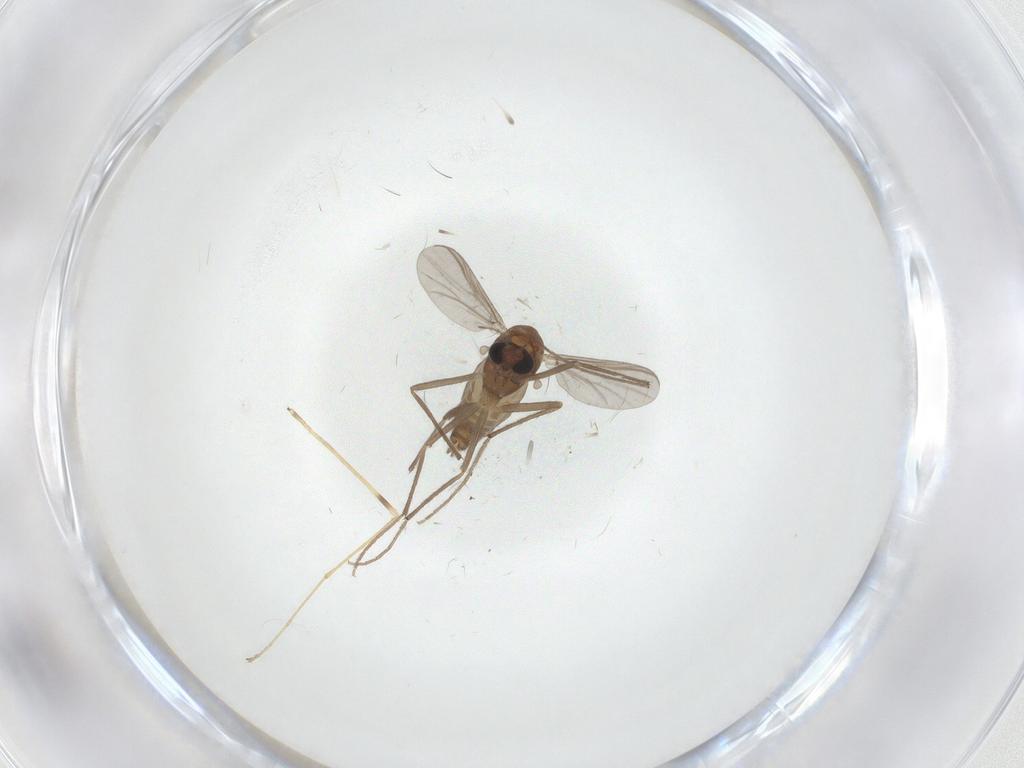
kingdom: Animalia
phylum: Arthropoda
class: Insecta
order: Diptera
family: Chironomidae
